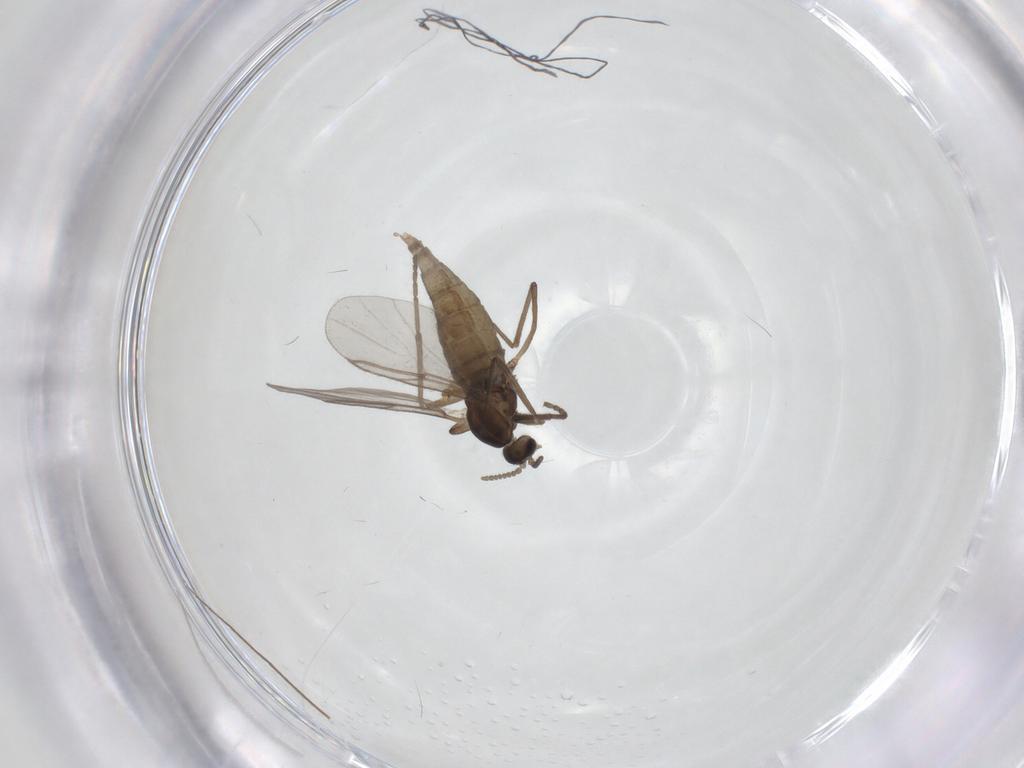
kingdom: Animalia
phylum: Arthropoda
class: Insecta
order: Diptera
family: Cecidomyiidae
